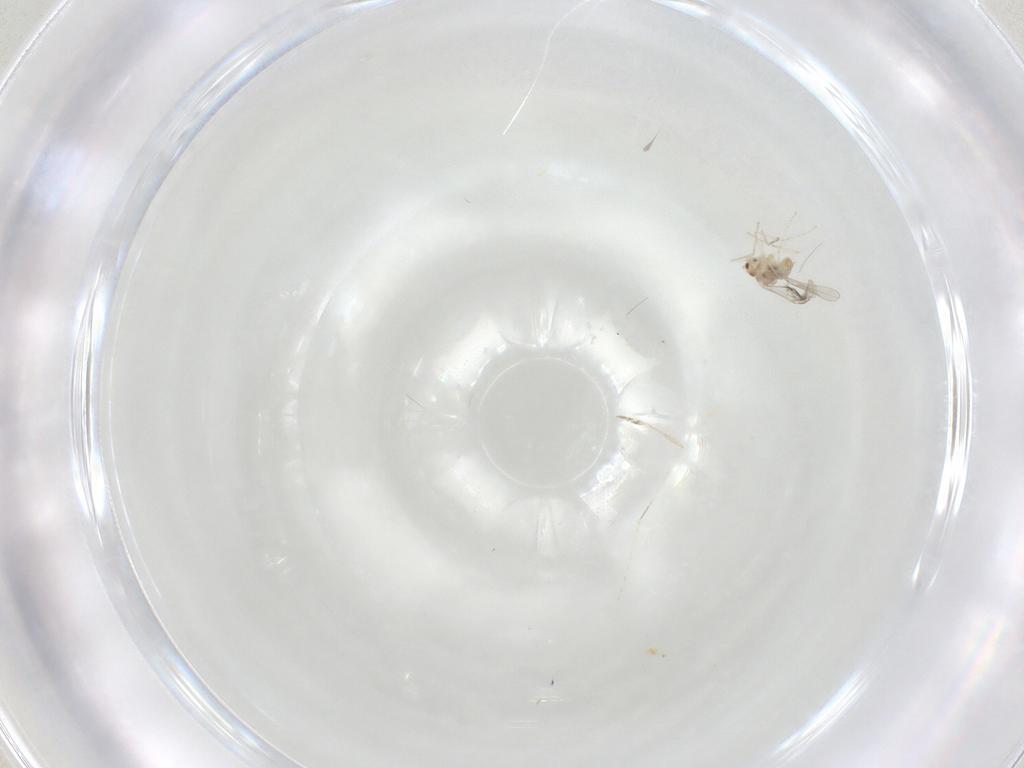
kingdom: Animalia
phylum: Arthropoda
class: Insecta
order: Diptera
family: Cecidomyiidae
